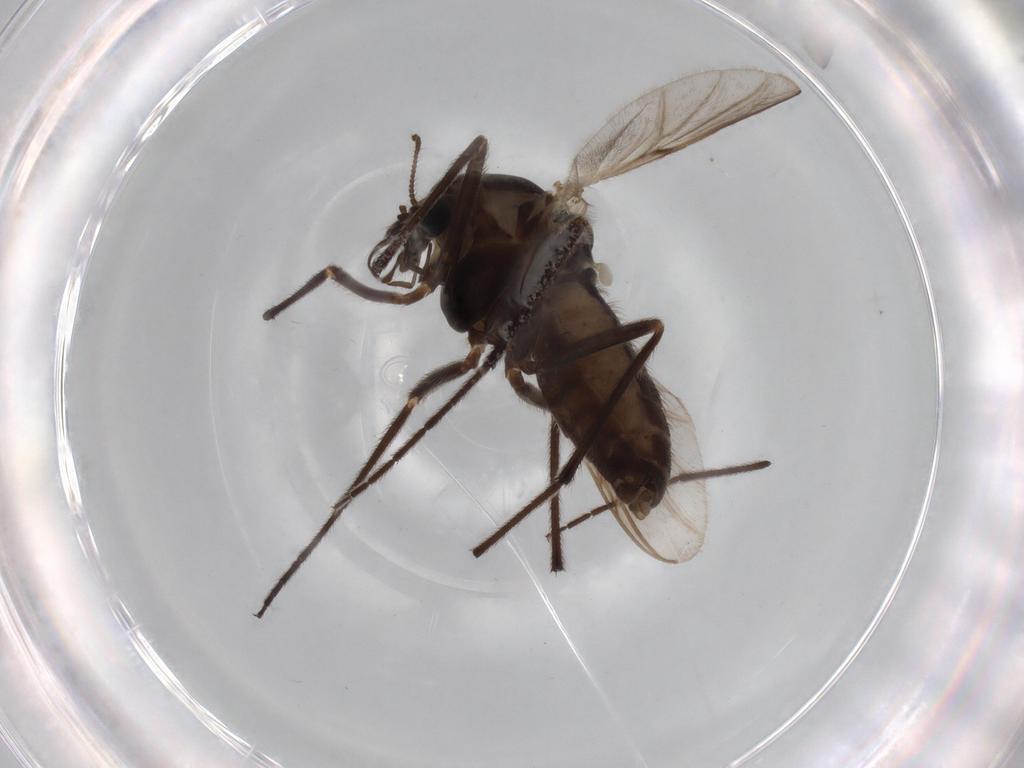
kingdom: Animalia
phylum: Arthropoda
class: Insecta
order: Diptera
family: Chironomidae
